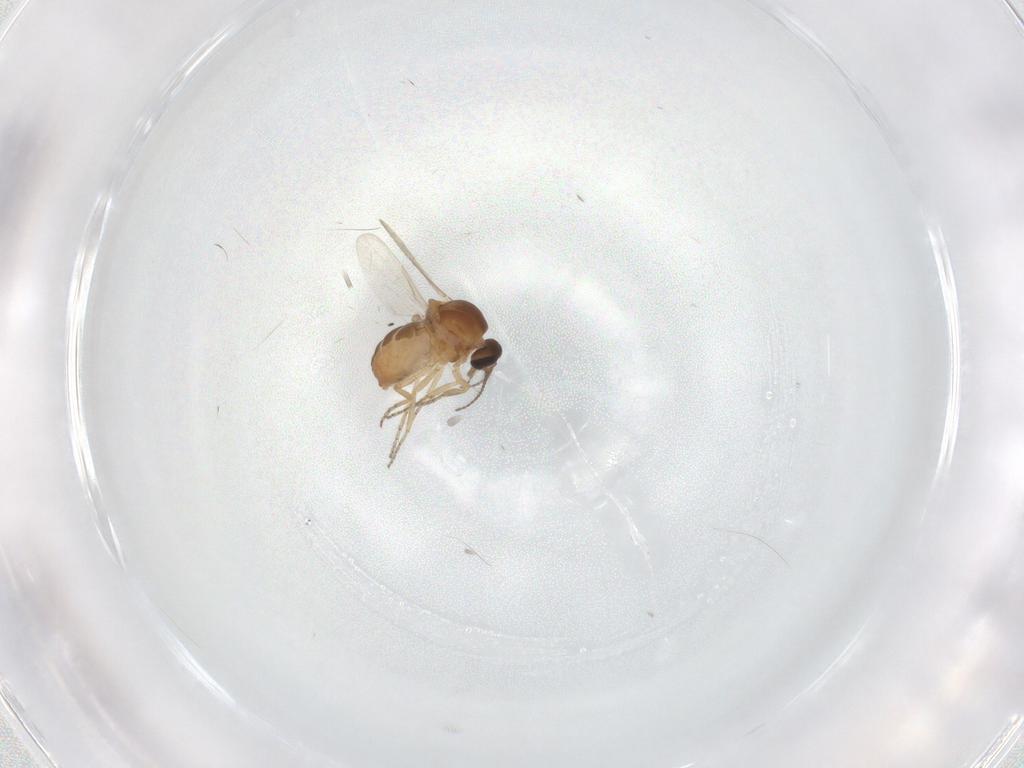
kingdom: Animalia
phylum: Arthropoda
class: Insecta
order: Diptera
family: Ceratopogonidae
